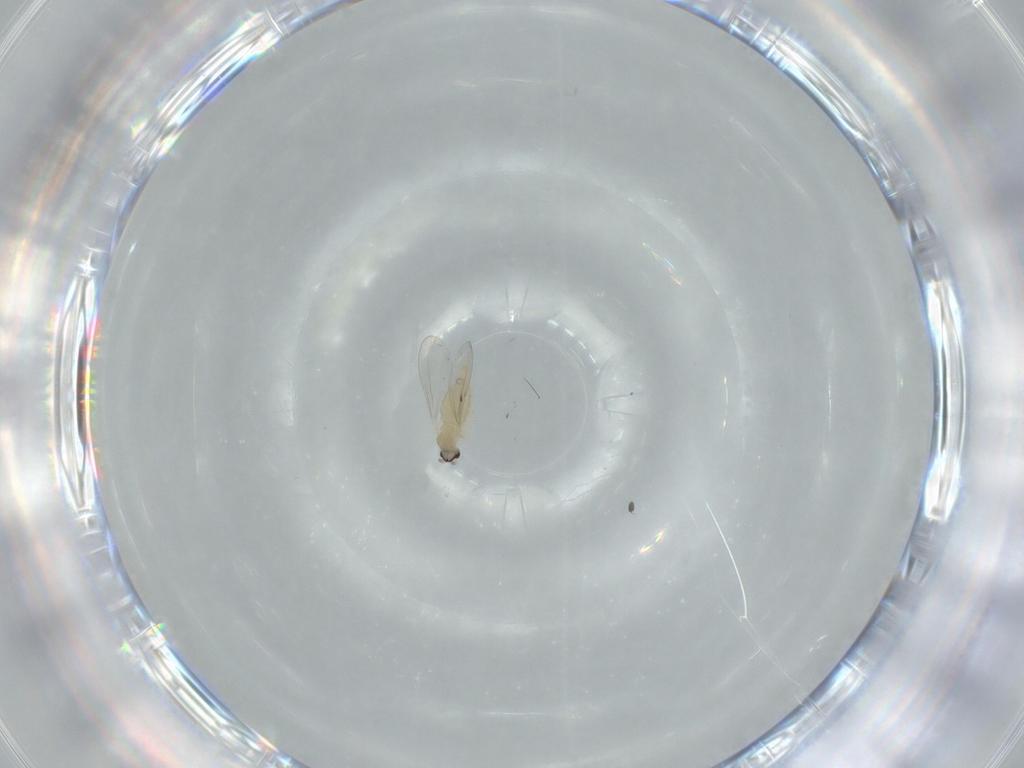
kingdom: Animalia
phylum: Arthropoda
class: Insecta
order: Diptera
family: Cecidomyiidae
